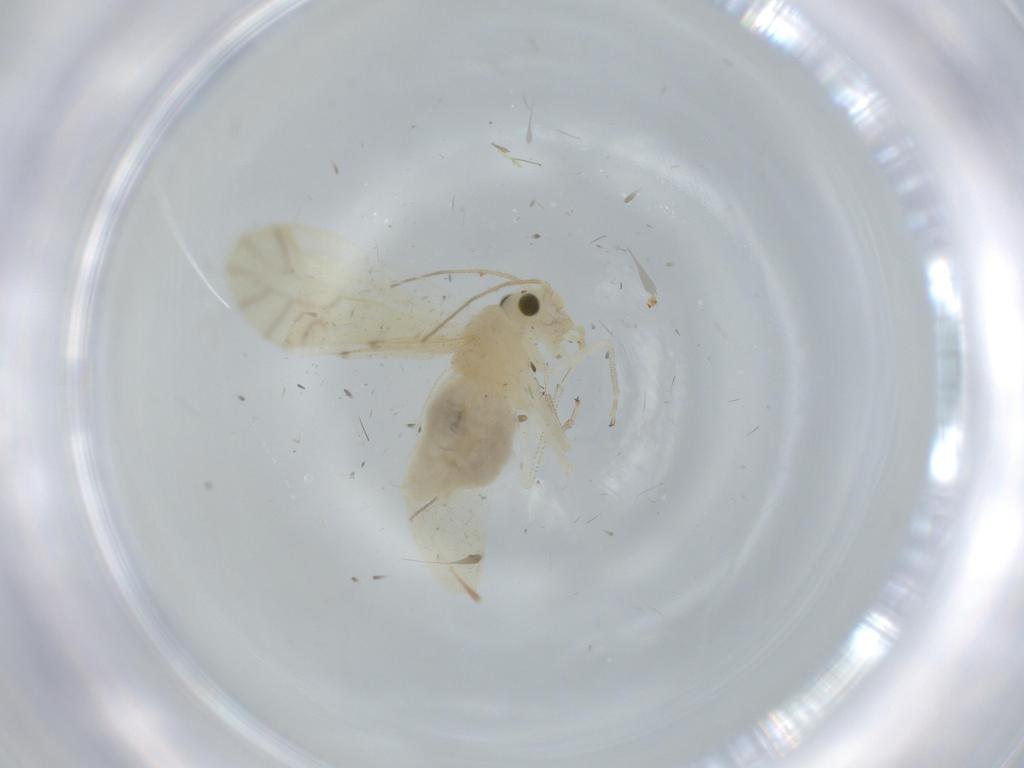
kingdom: Animalia
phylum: Arthropoda
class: Insecta
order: Psocodea
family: Caeciliusidae
